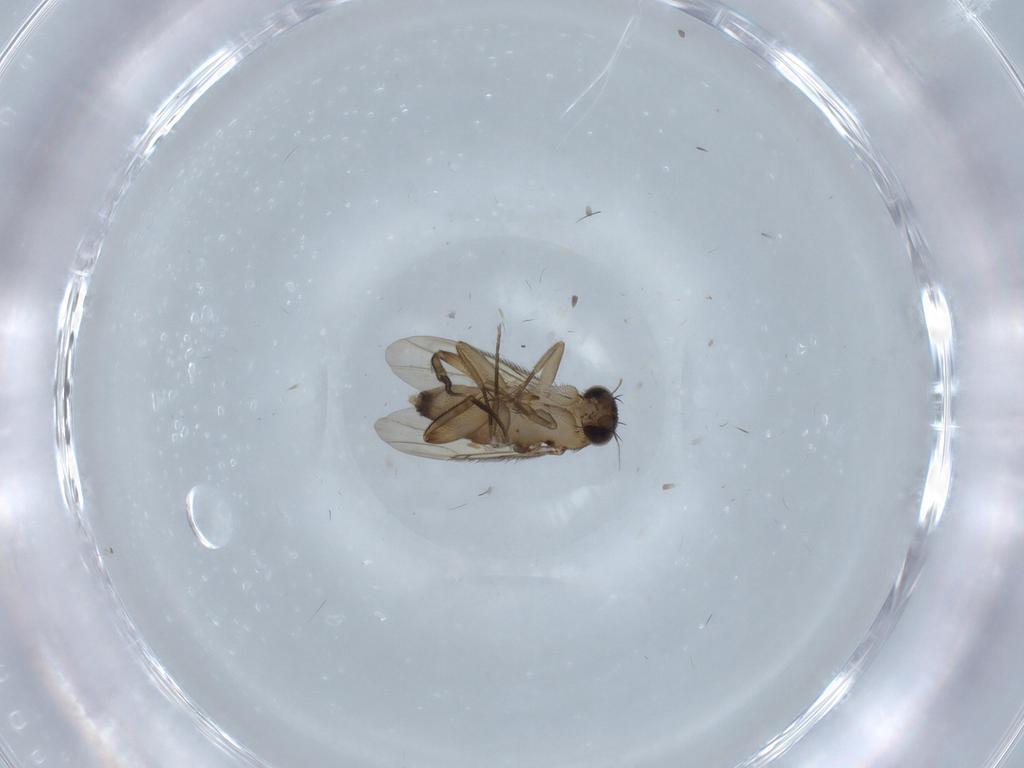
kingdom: Animalia
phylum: Arthropoda
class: Insecta
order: Diptera
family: Phoridae
